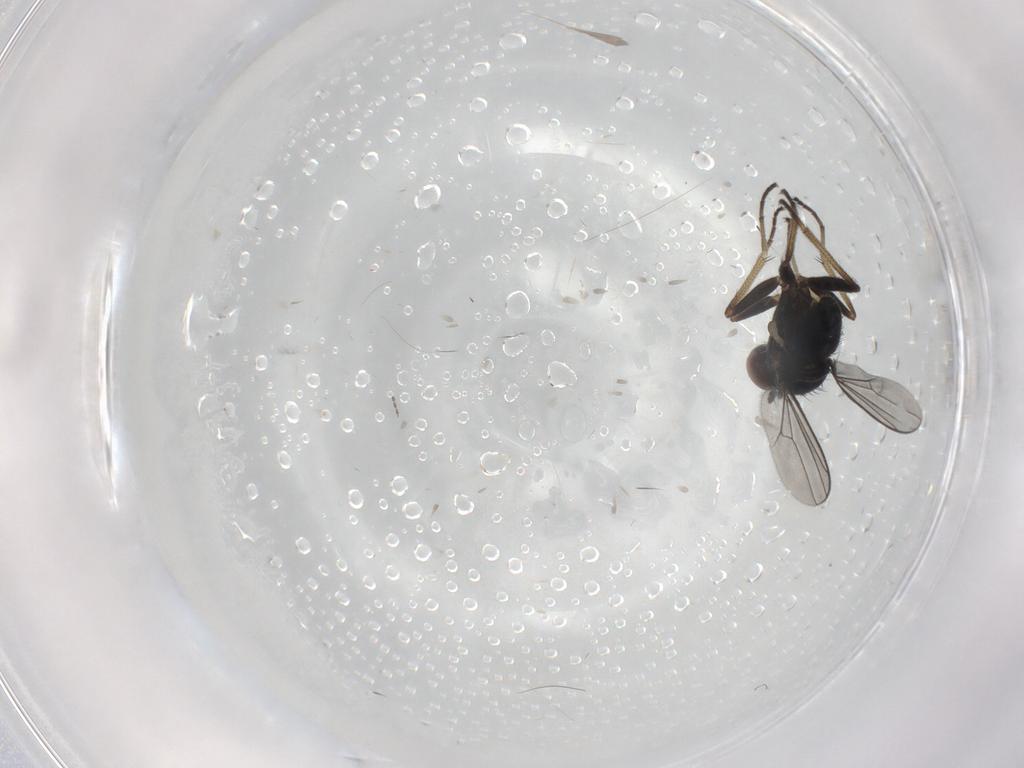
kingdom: Animalia
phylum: Arthropoda
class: Insecta
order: Diptera
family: Dolichopodidae
